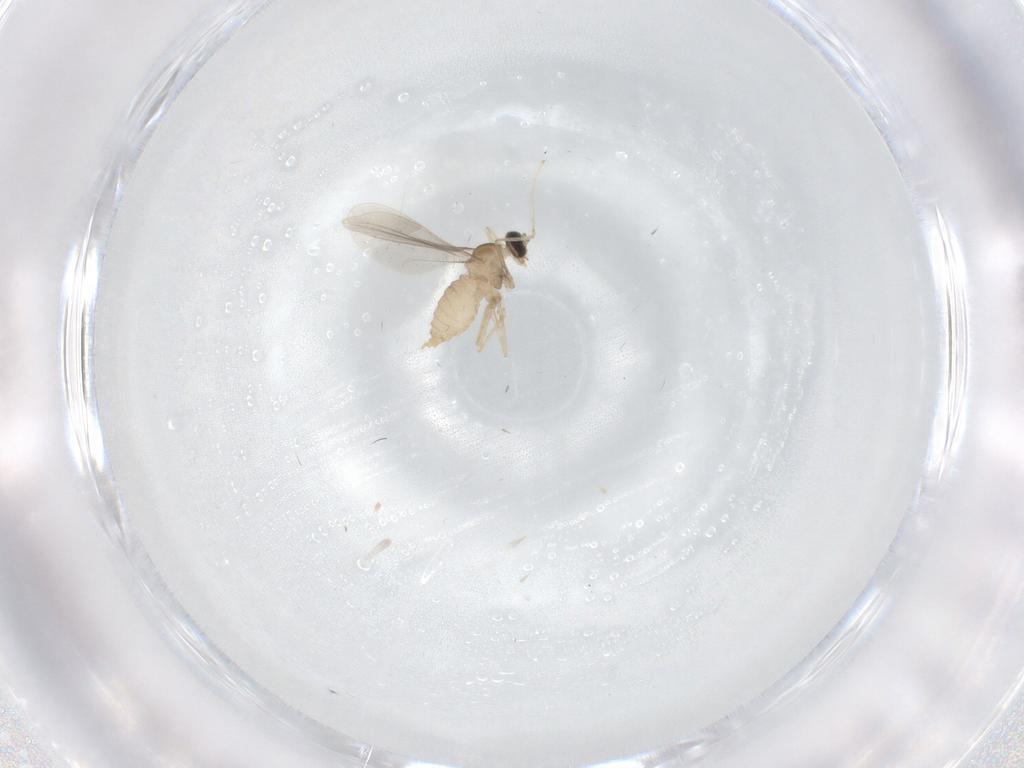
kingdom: Animalia
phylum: Arthropoda
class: Insecta
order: Diptera
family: Cecidomyiidae
